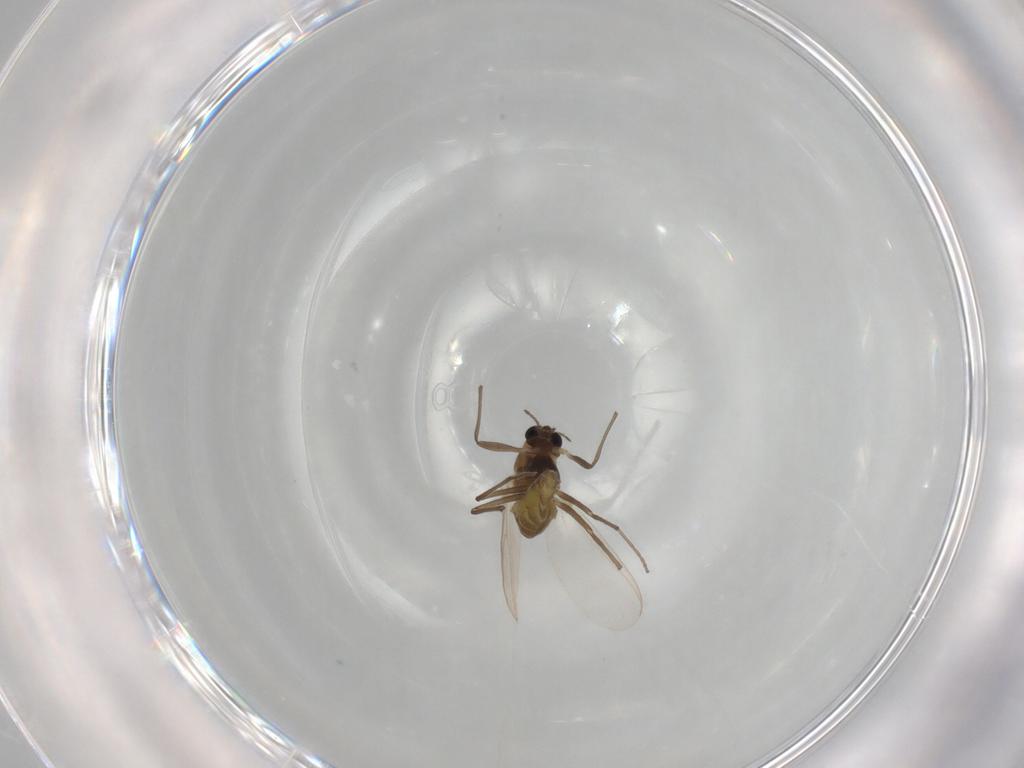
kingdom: Animalia
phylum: Arthropoda
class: Insecta
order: Diptera
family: Chironomidae
